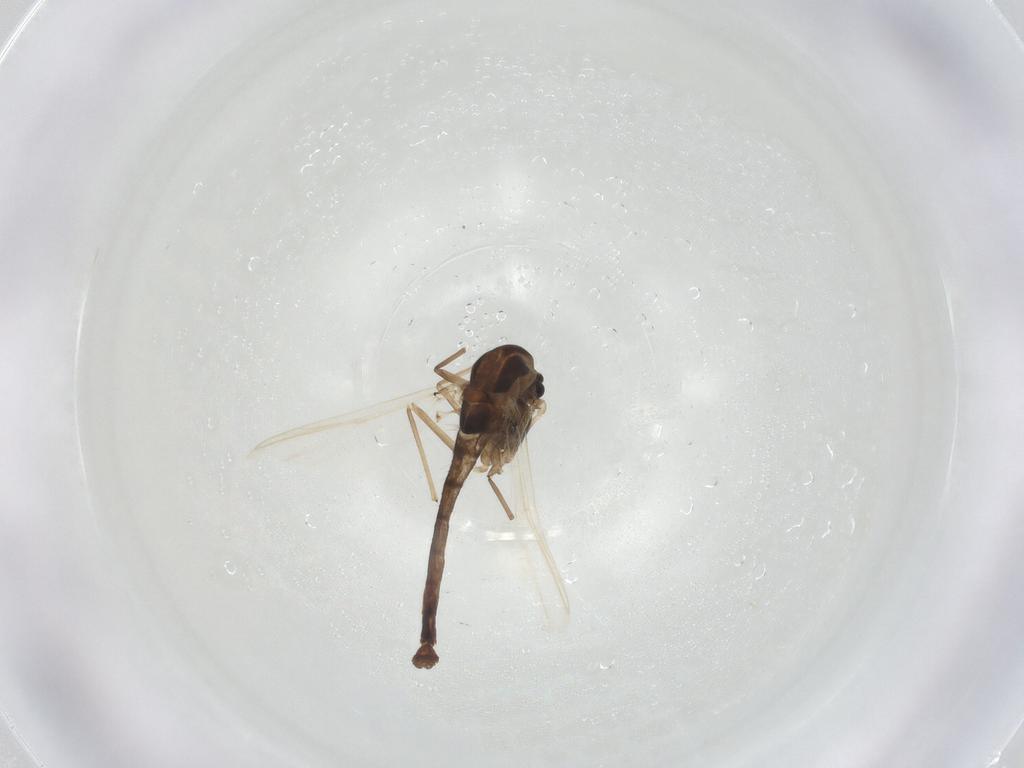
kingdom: Animalia
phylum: Arthropoda
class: Insecta
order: Diptera
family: Chironomidae
